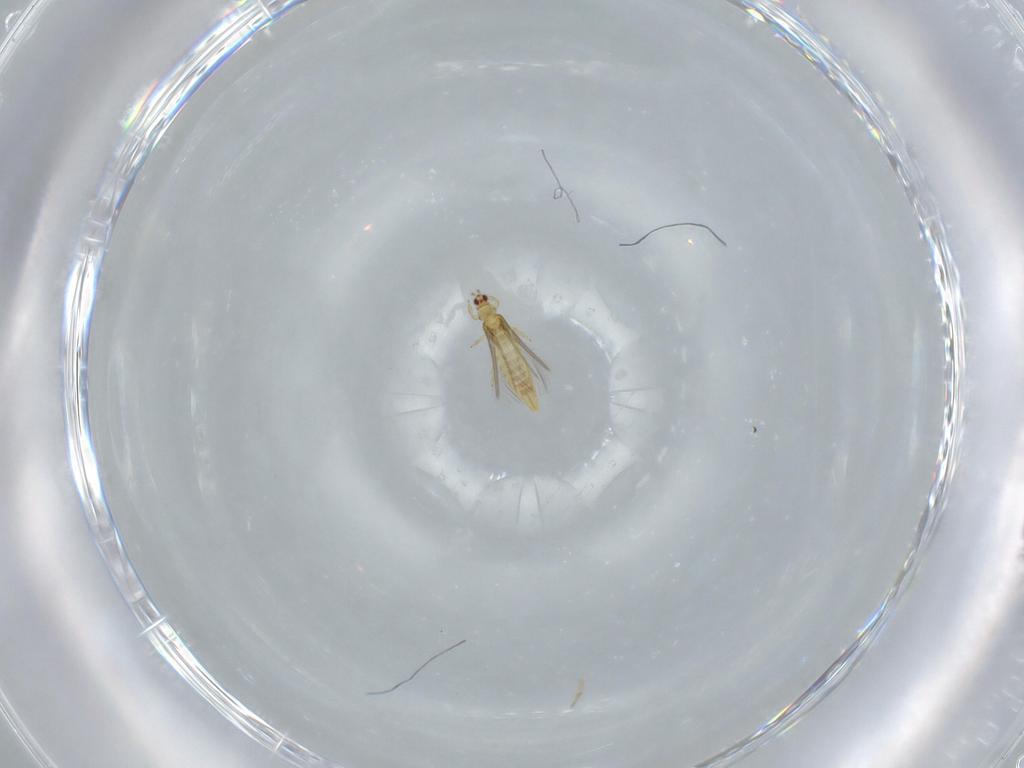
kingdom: Animalia
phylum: Arthropoda
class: Insecta
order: Thysanoptera
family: Thripidae
